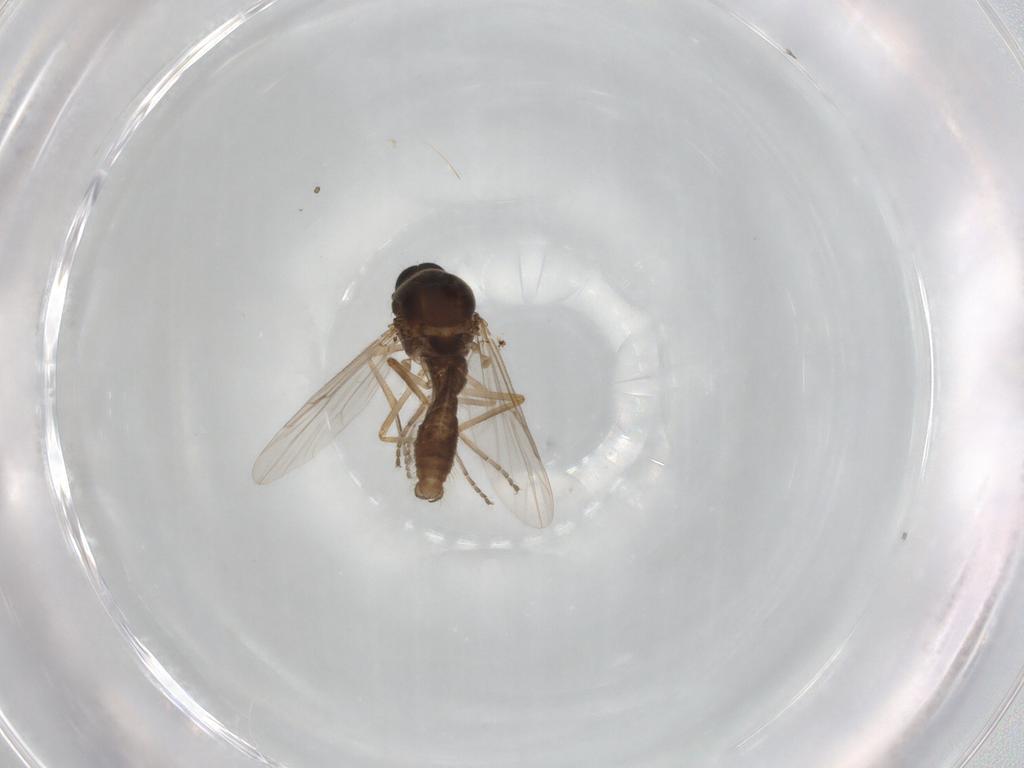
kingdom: Animalia
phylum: Arthropoda
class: Insecta
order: Diptera
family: Ceratopogonidae
